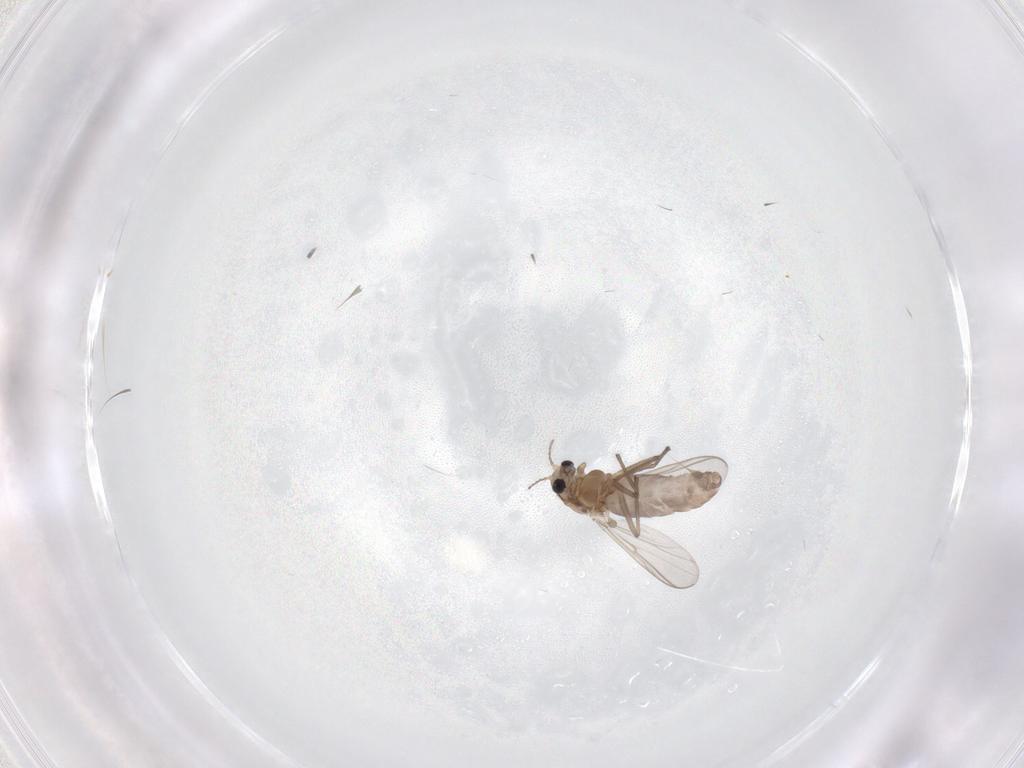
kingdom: Animalia
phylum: Arthropoda
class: Insecta
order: Diptera
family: Chironomidae
